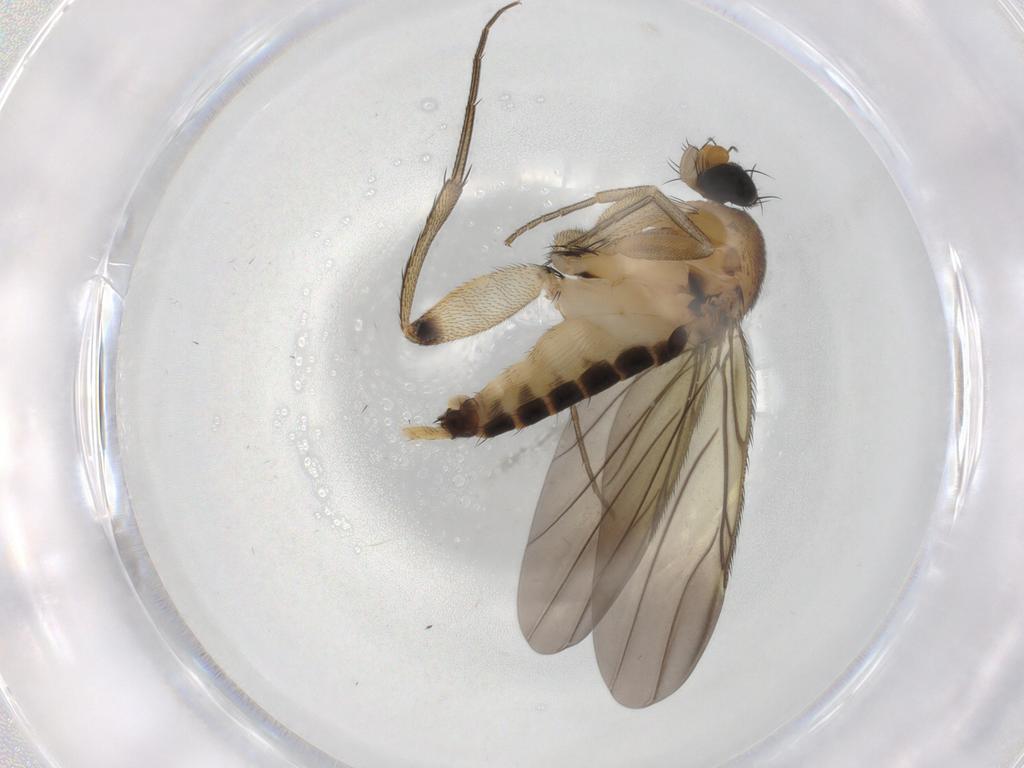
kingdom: Animalia
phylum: Arthropoda
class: Insecta
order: Diptera
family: Phoridae
